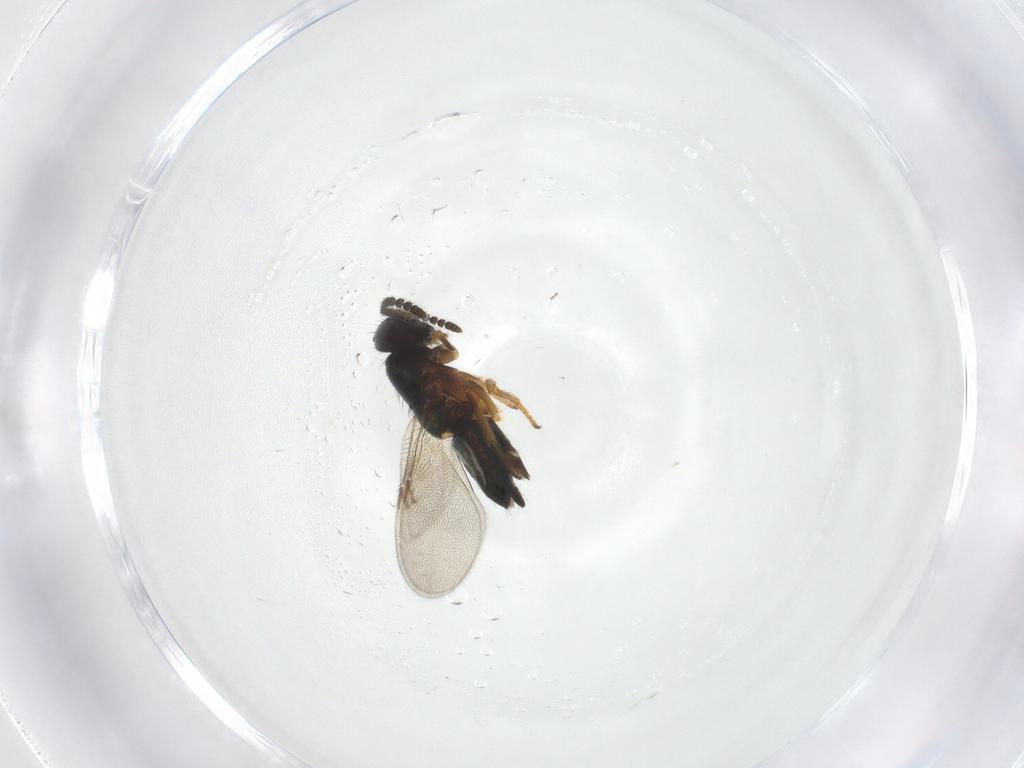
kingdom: Animalia
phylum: Arthropoda
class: Insecta
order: Hymenoptera
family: Encyrtidae
